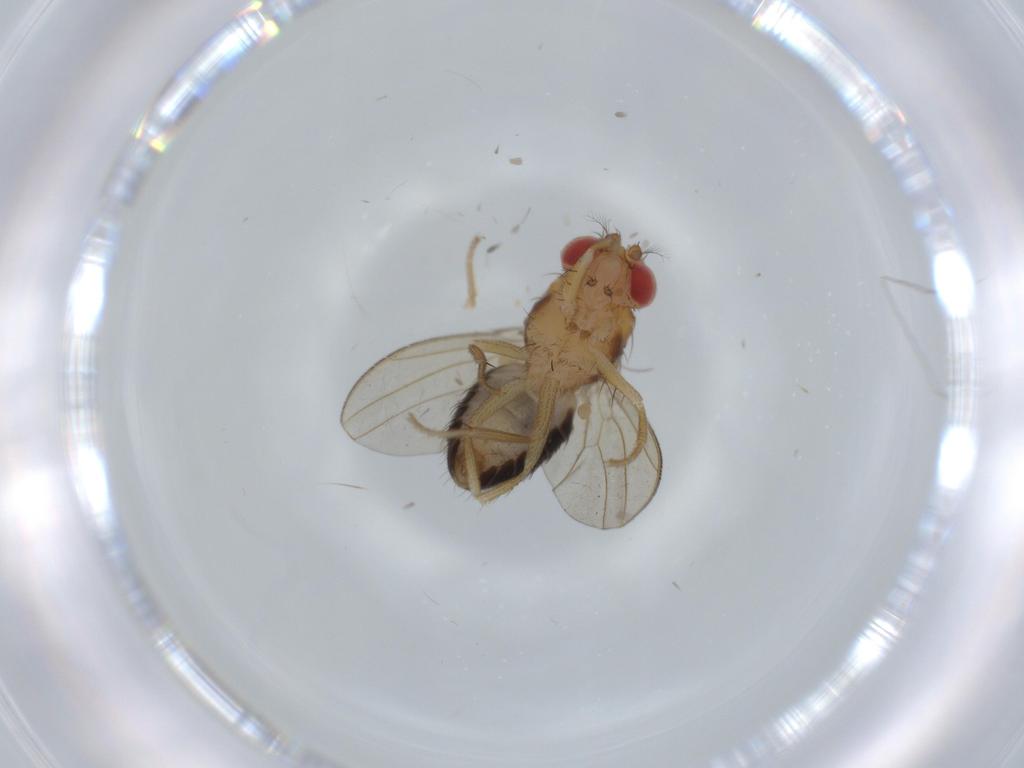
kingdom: Animalia
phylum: Arthropoda
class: Insecta
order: Diptera
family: Drosophilidae
